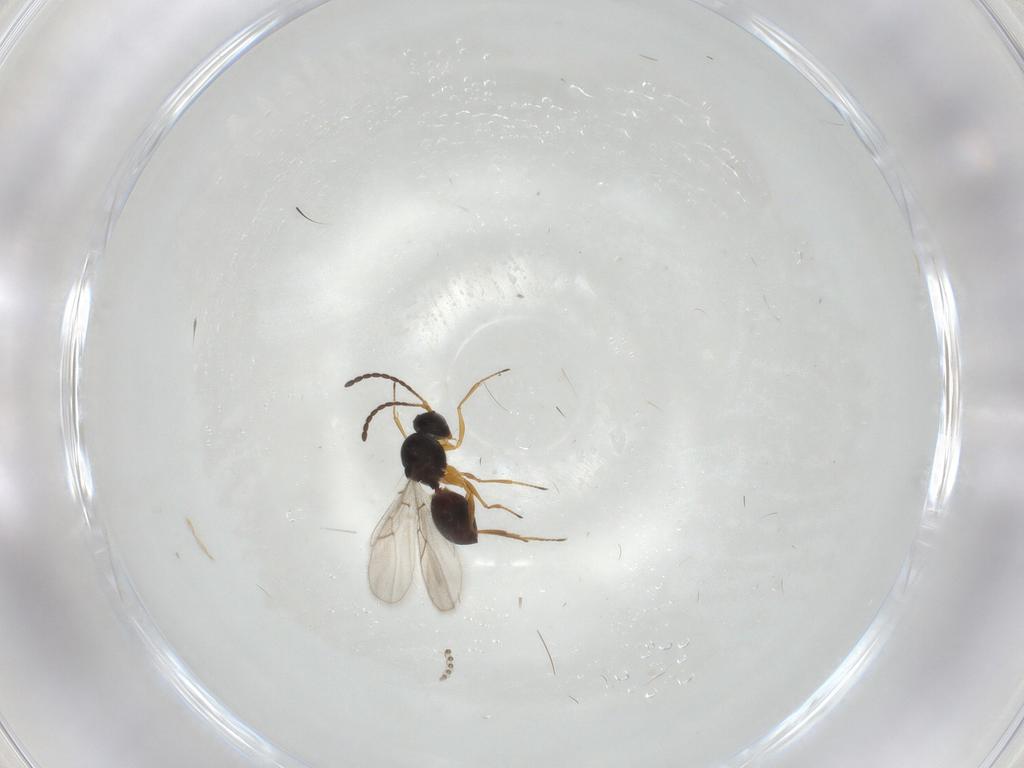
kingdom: Animalia
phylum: Arthropoda
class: Insecta
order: Hymenoptera
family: Figitidae
